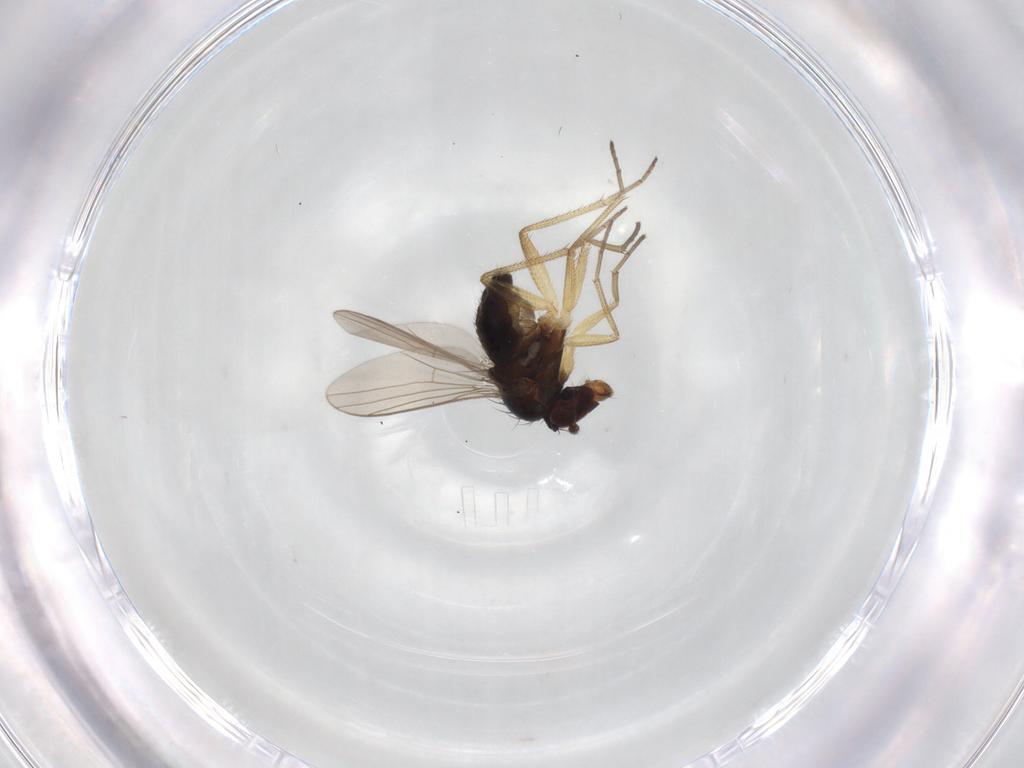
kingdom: Animalia
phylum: Arthropoda
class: Insecta
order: Diptera
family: Dolichopodidae
